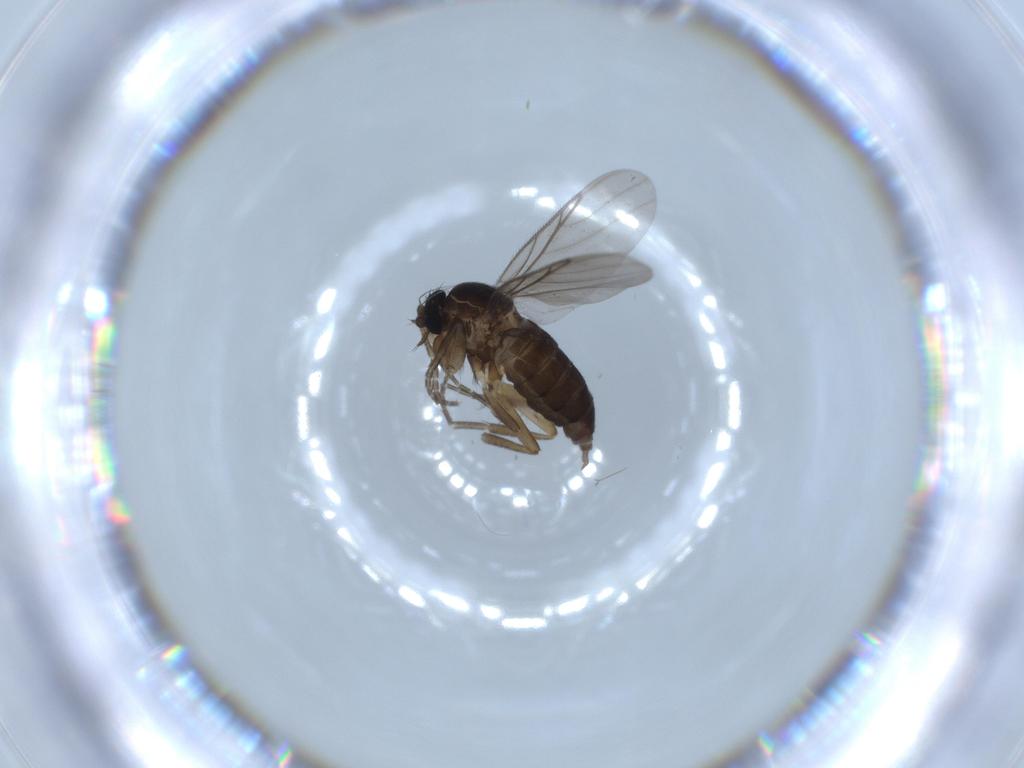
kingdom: Animalia
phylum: Arthropoda
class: Insecta
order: Diptera
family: Phoridae
